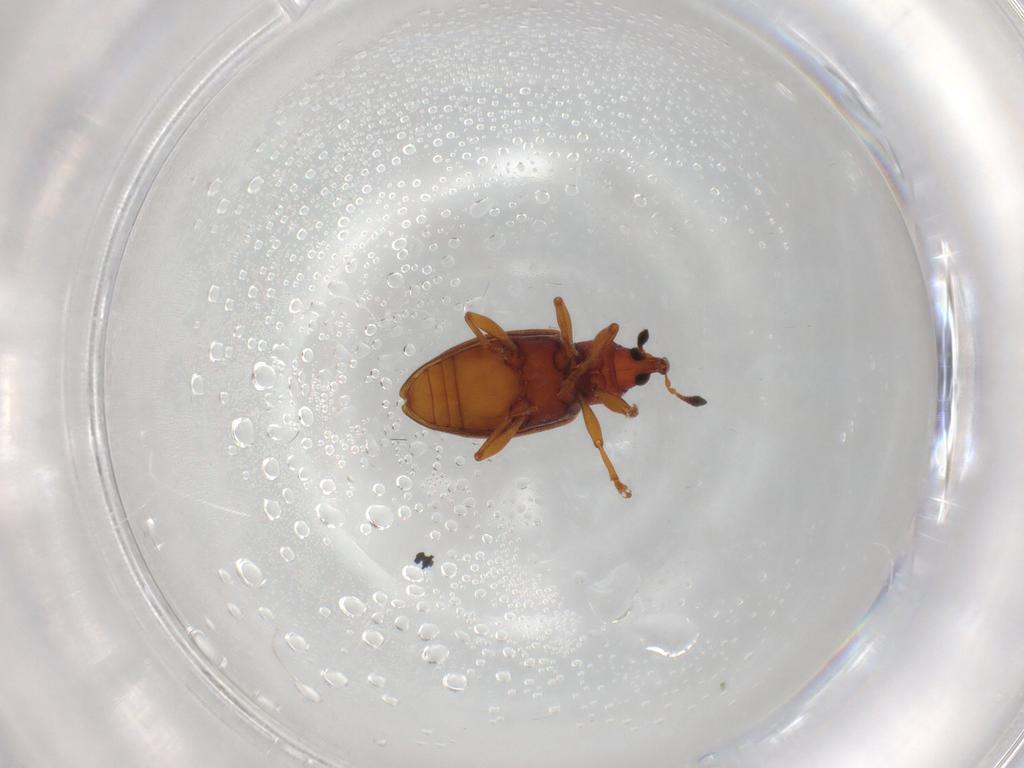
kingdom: Animalia
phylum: Arthropoda
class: Insecta
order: Coleoptera
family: Curculionidae
